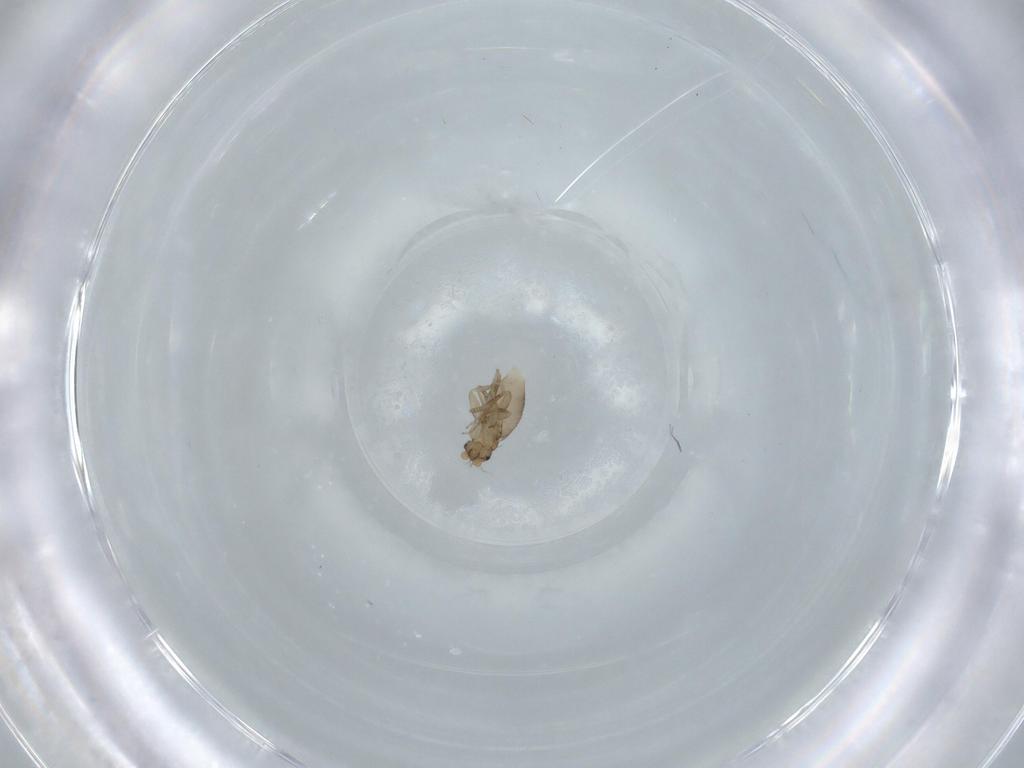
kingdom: Animalia
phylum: Arthropoda
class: Insecta
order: Diptera
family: Phoridae
